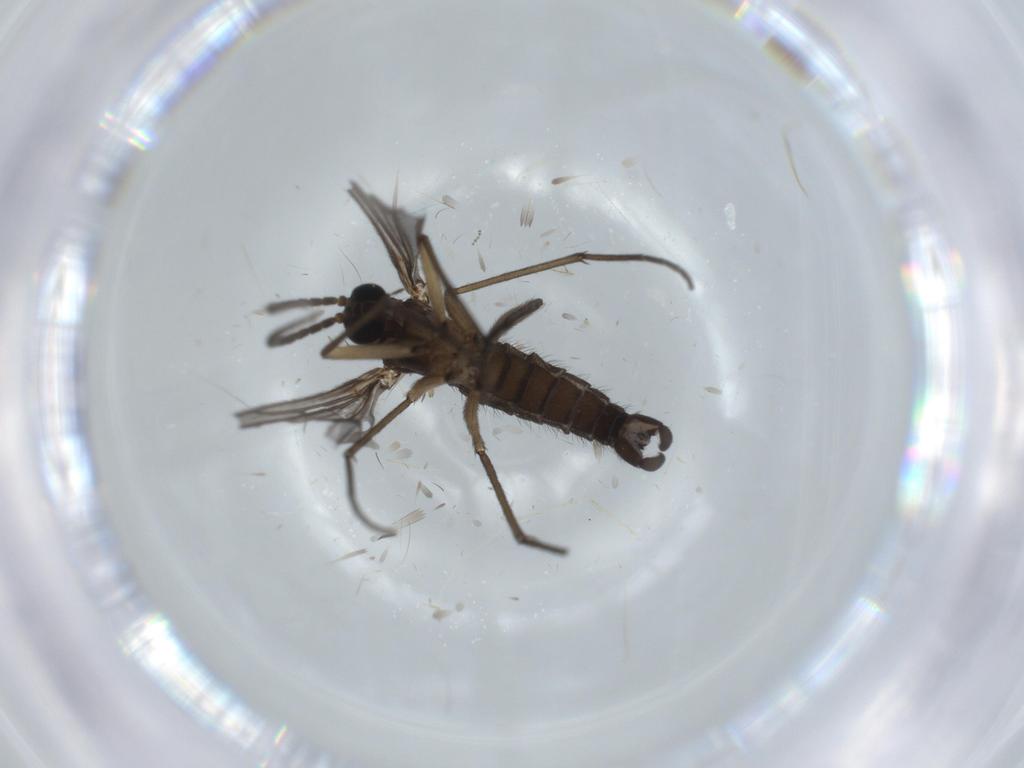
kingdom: Animalia
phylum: Arthropoda
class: Insecta
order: Diptera
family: Sciaridae
